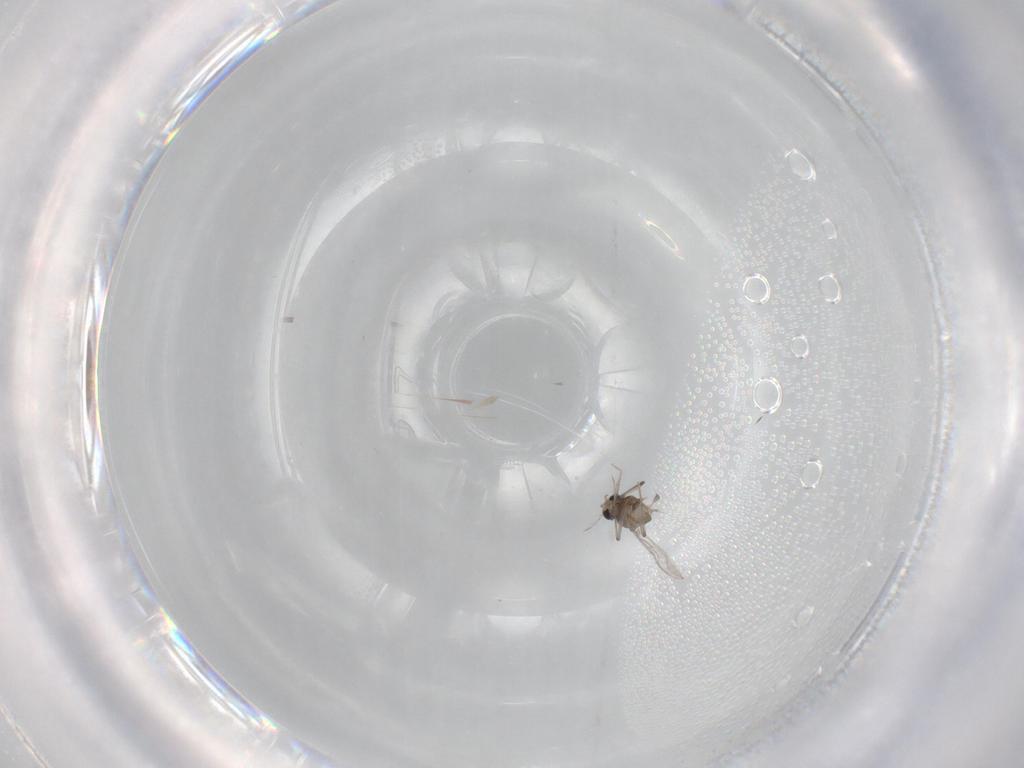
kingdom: Animalia
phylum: Arthropoda
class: Insecta
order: Diptera
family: Chironomidae
